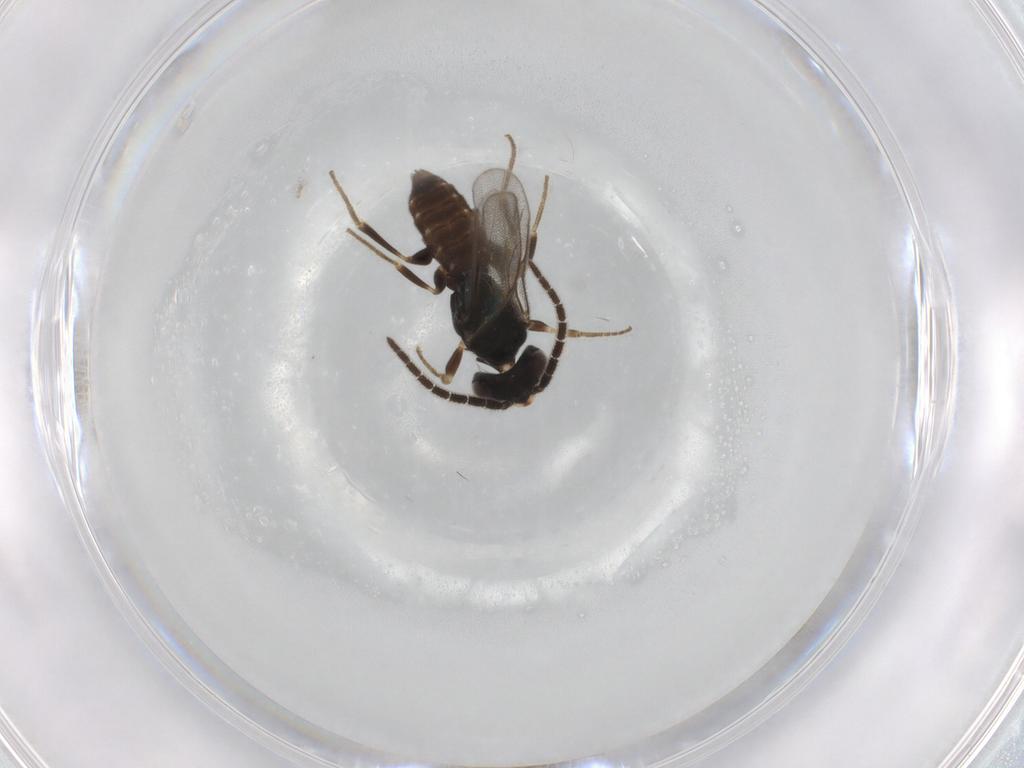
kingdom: Animalia
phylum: Arthropoda
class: Insecta
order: Hymenoptera
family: Dryinidae
